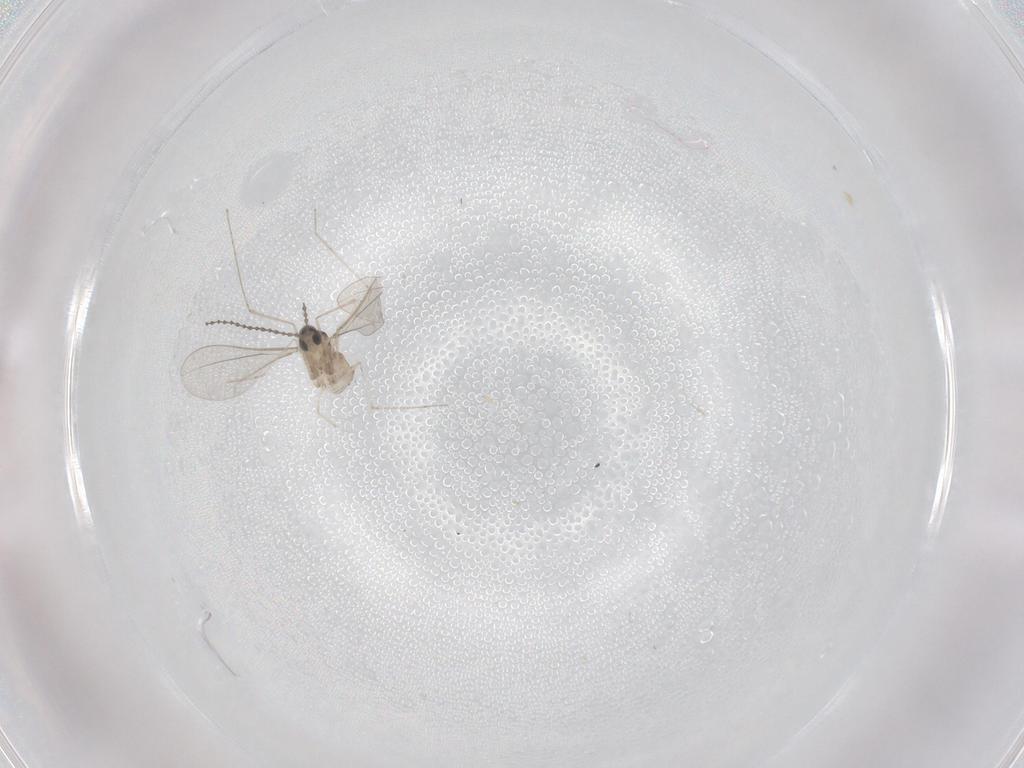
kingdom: Animalia
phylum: Arthropoda
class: Insecta
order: Diptera
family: Cecidomyiidae
